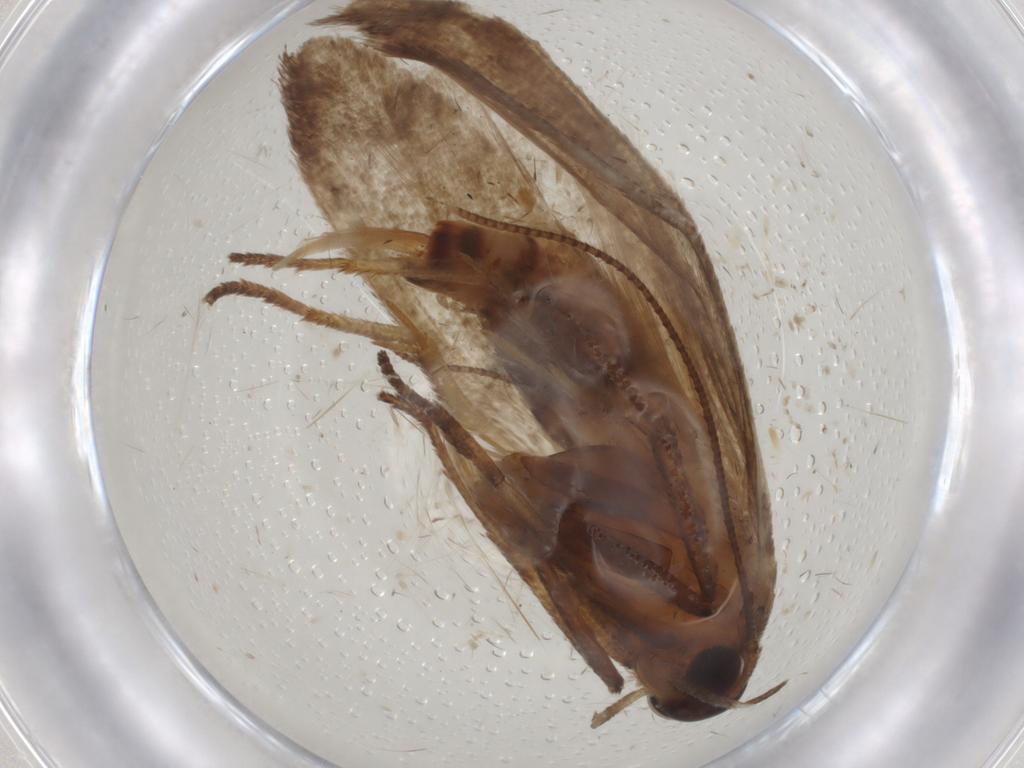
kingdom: Animalia
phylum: Arthropoda
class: Insecta
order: Lepidoptera
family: Blastobasidae
